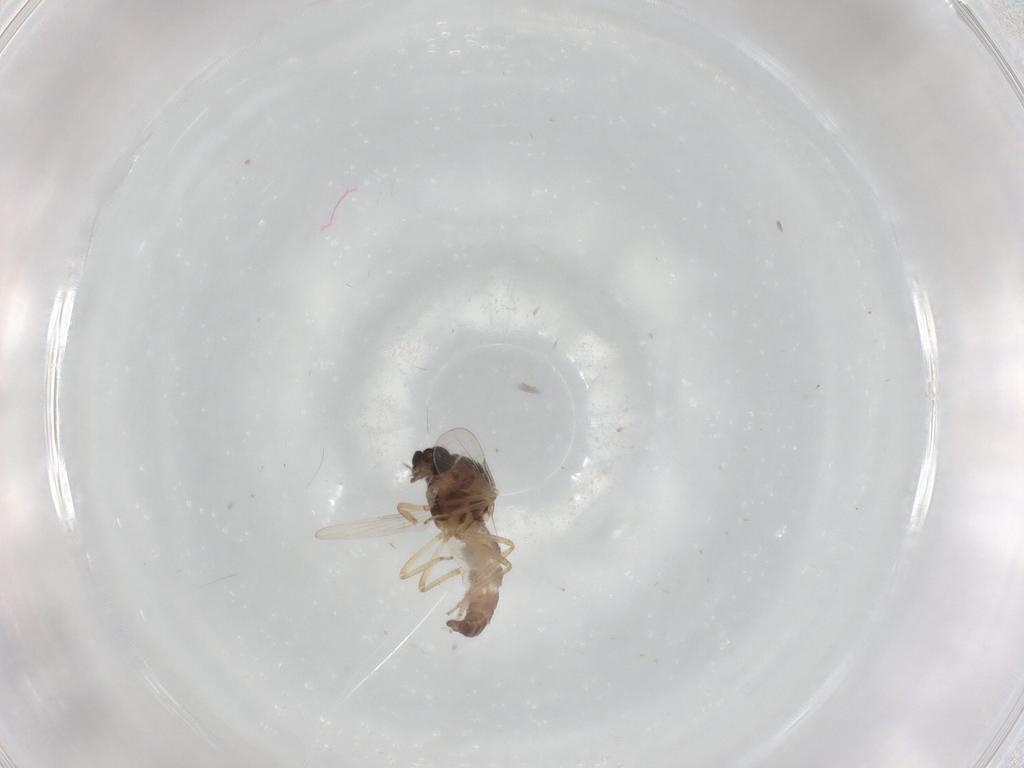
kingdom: Animalia
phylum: Arthropoda
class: Insecta
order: Diptera
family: Ceratopogonidae
